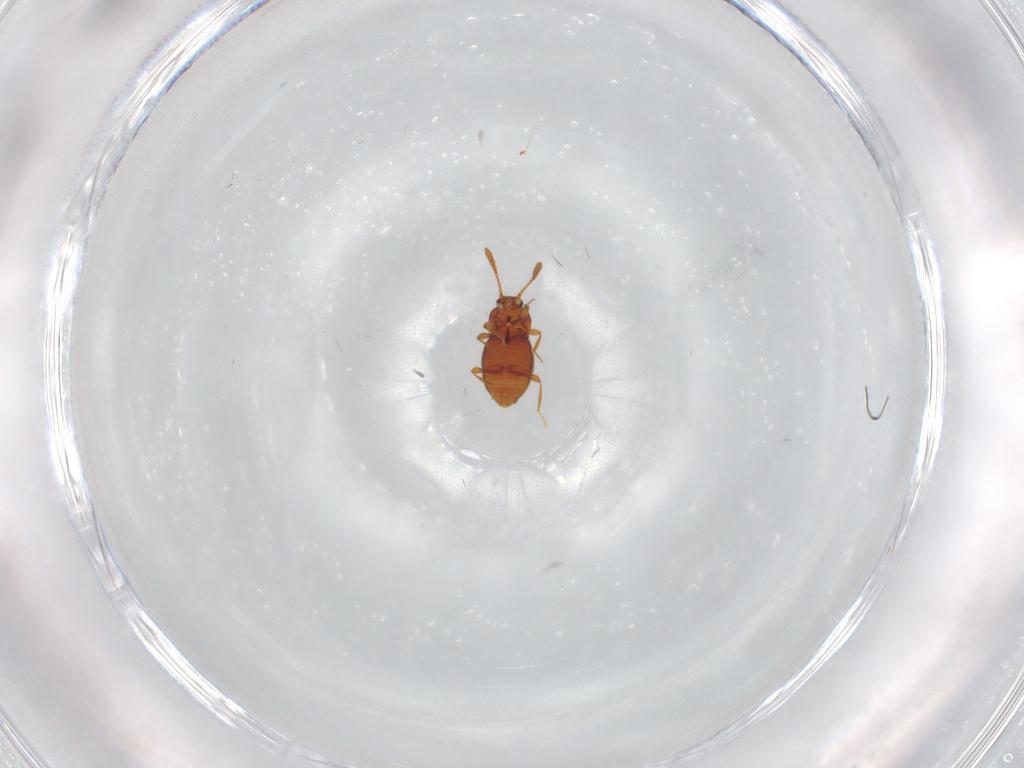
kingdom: Animalia
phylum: Arthropoda
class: Insecta
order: Coleoptera
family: Staphylinidae
